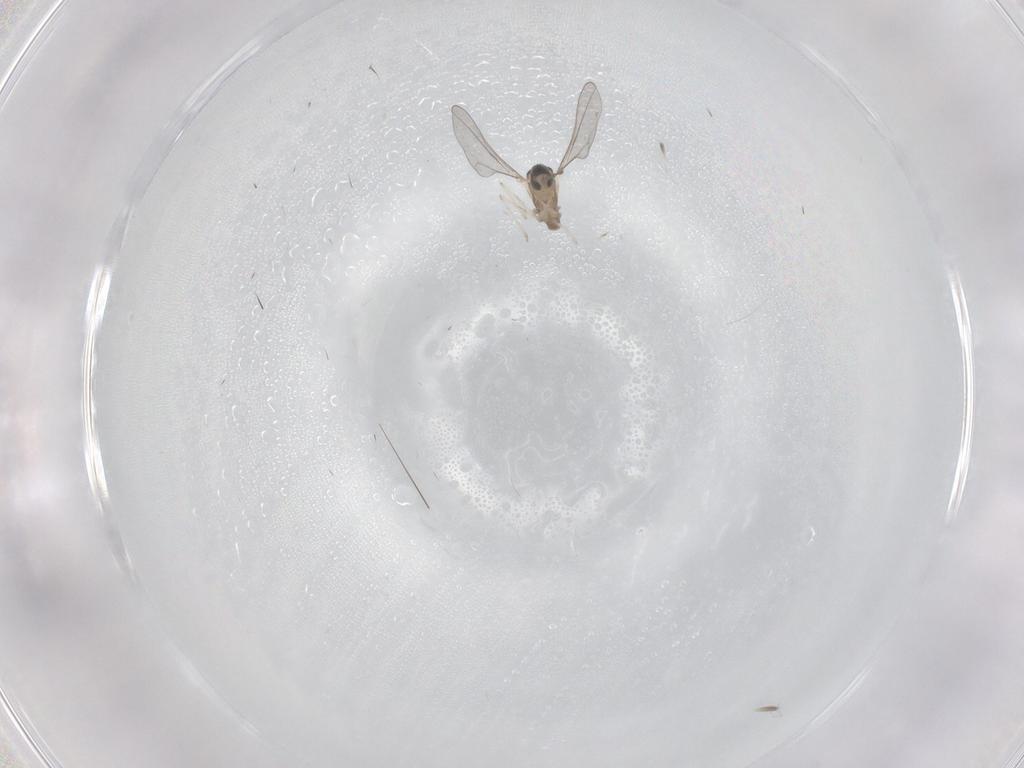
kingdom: Animalia
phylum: Arthropoda
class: Insecta
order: Diptera
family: Cecidomyiidae
